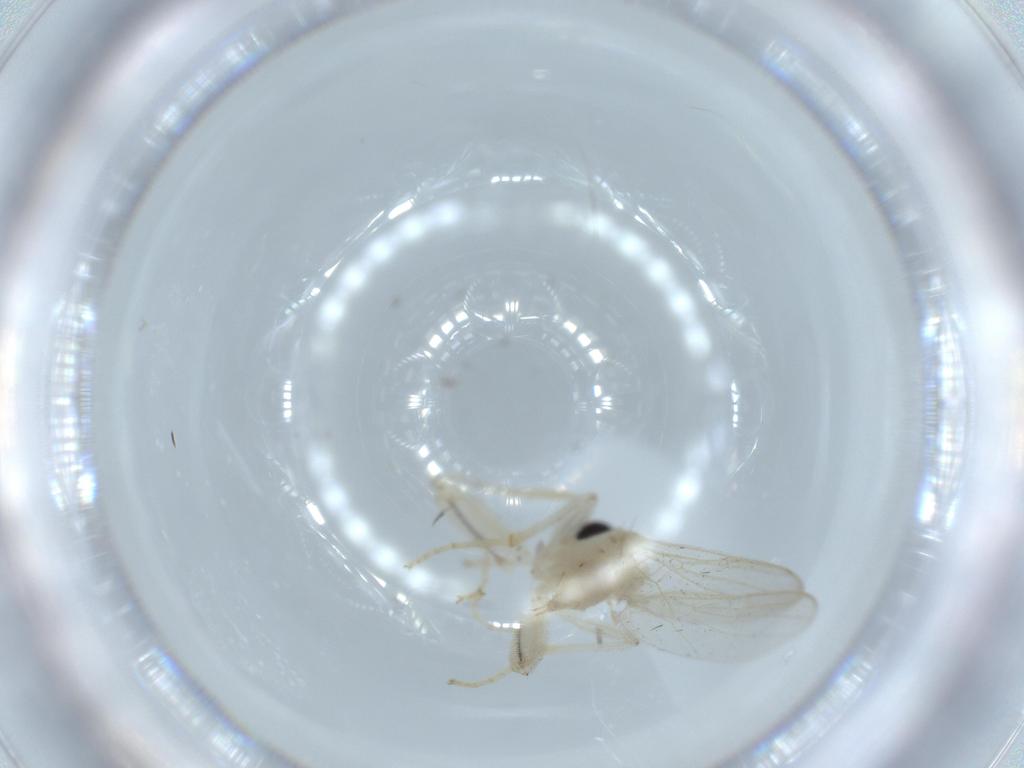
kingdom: Animalia
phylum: Arthropoda
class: Insecta
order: Diptera
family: Hybotidae
